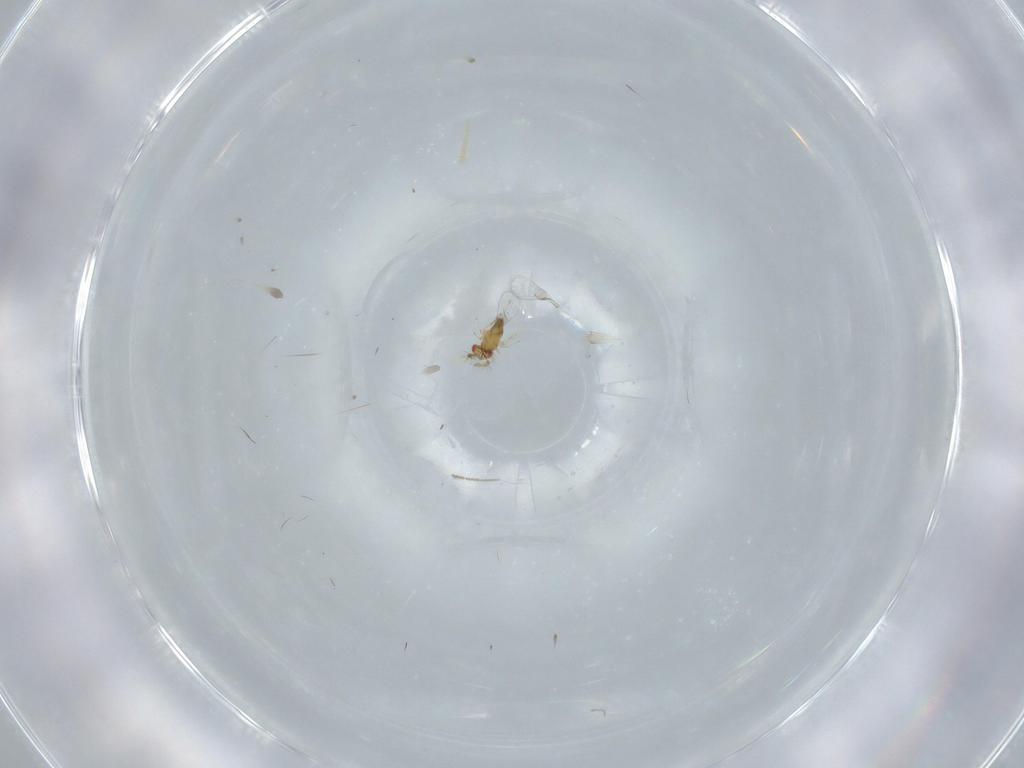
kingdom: Animalia
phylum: Arthropoda
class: Insecta
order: Hymenoptera
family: Trichogrammatidae
